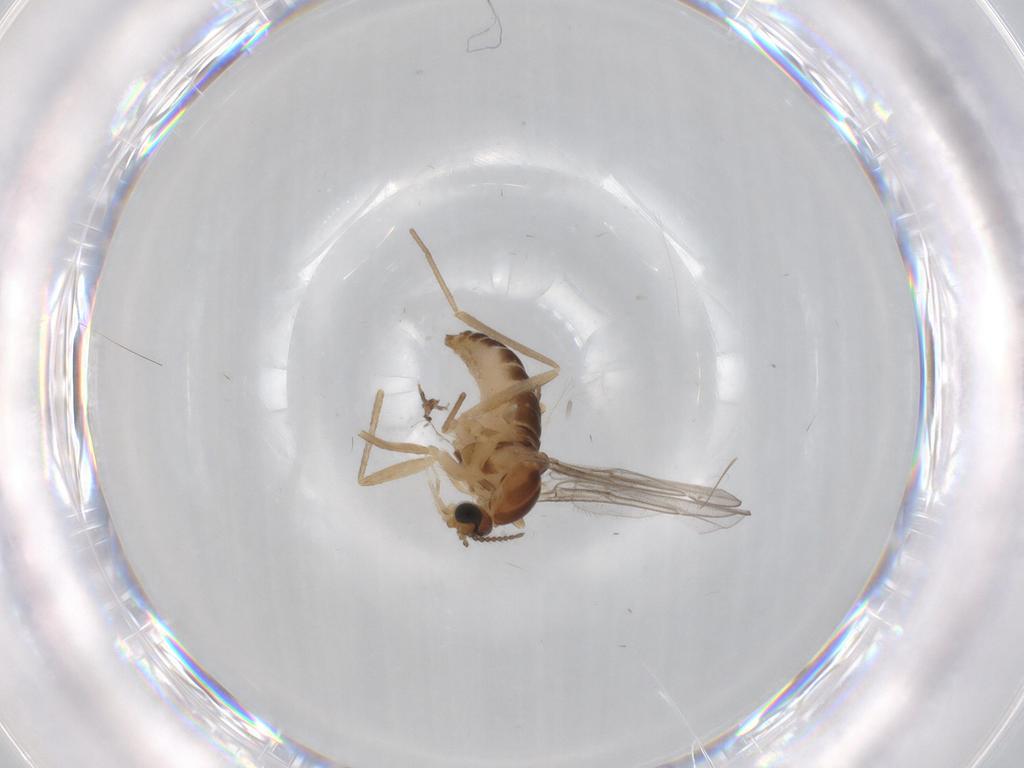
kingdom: Animalia
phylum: Arthropoda
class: Insecta
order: Diptera
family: Cecidomyiidae
